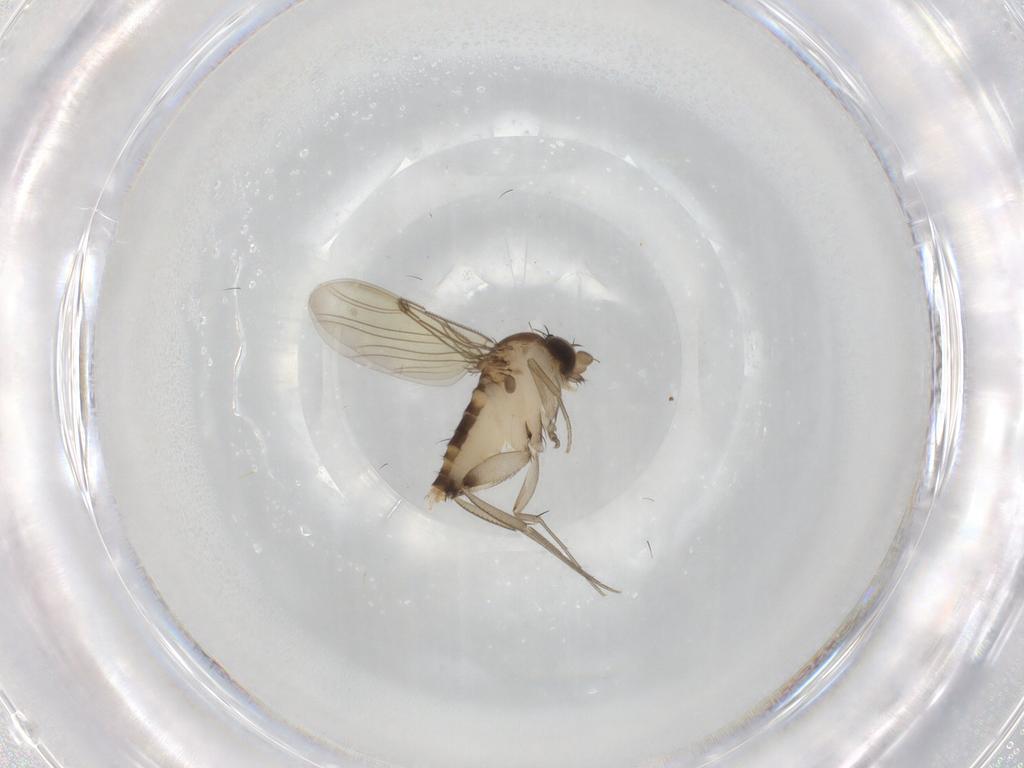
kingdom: Animalia
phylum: Arthropoda
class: Insecta
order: Diptera
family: Phoridae
